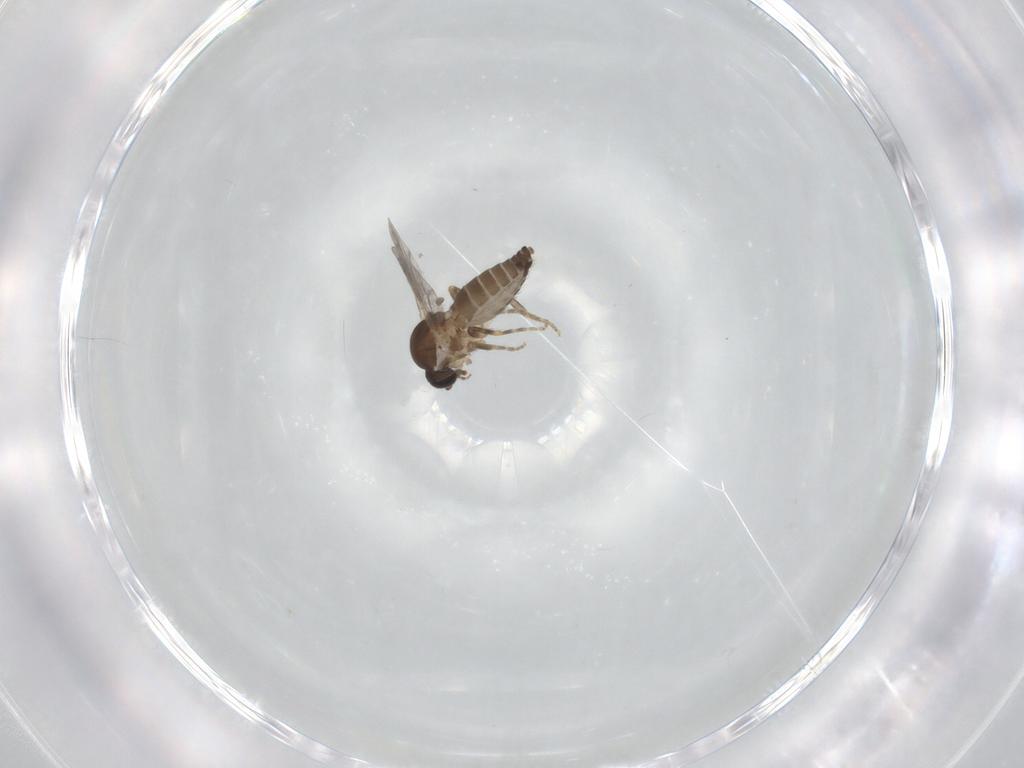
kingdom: Animalia
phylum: Arthropoda
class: Insecta
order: Diptera
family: Ceratopogonidae
